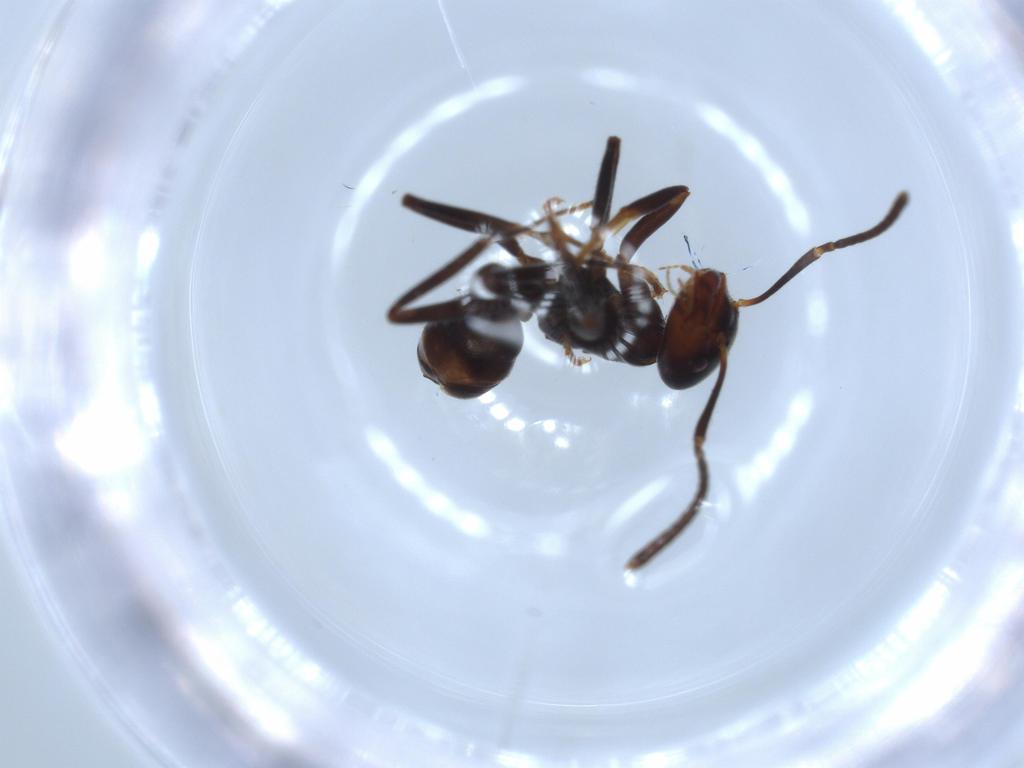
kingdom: Animalia
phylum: Arthropoda
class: Insecta
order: Hymenoptera
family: Formicidae
